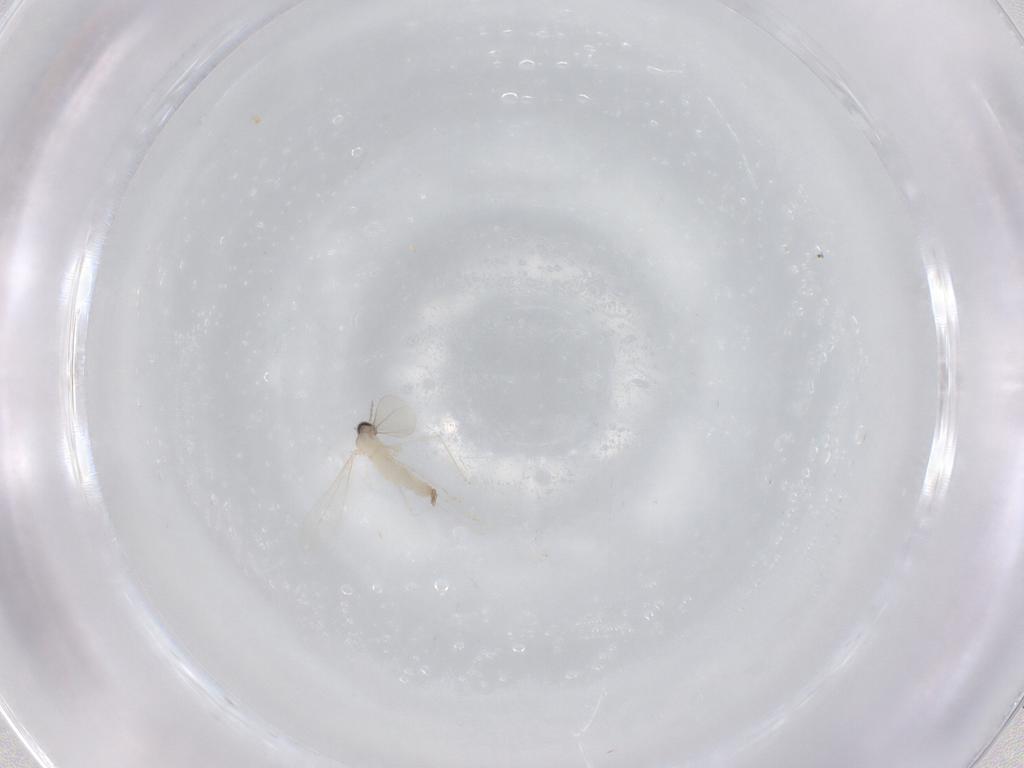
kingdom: Animalia
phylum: Arthropoda
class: Insecta
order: Diptera
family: Cecidomyiidae
